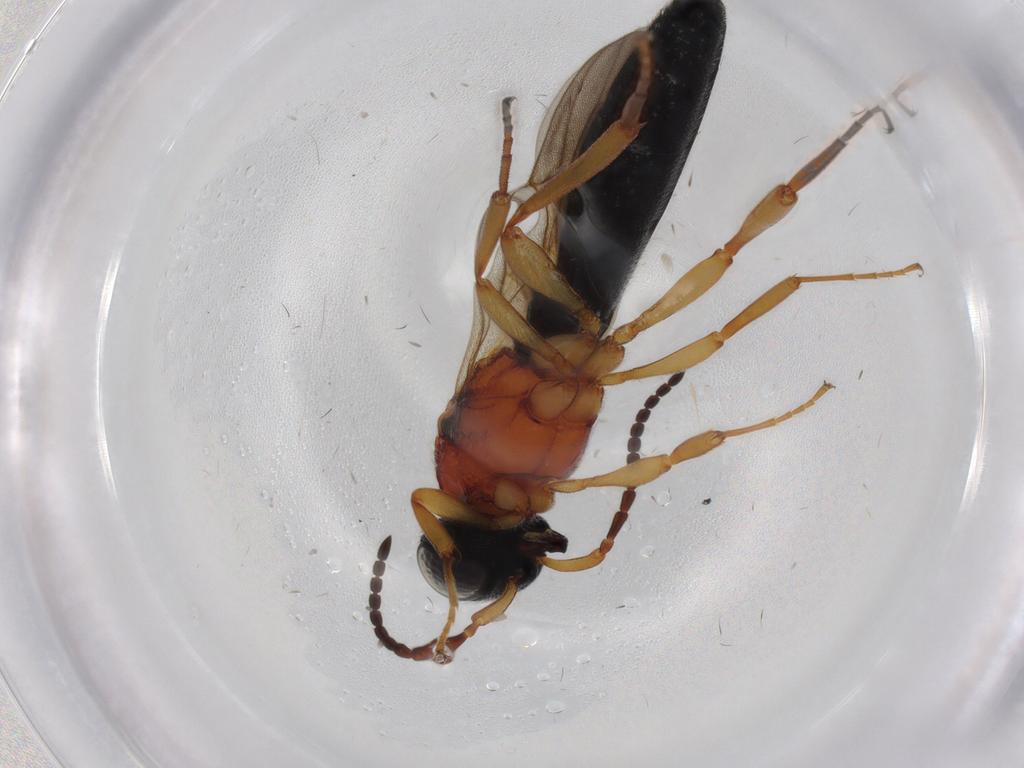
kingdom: Animalia
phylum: Arthropoda
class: Insecta
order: Hymenoptera
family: Scelionidae
